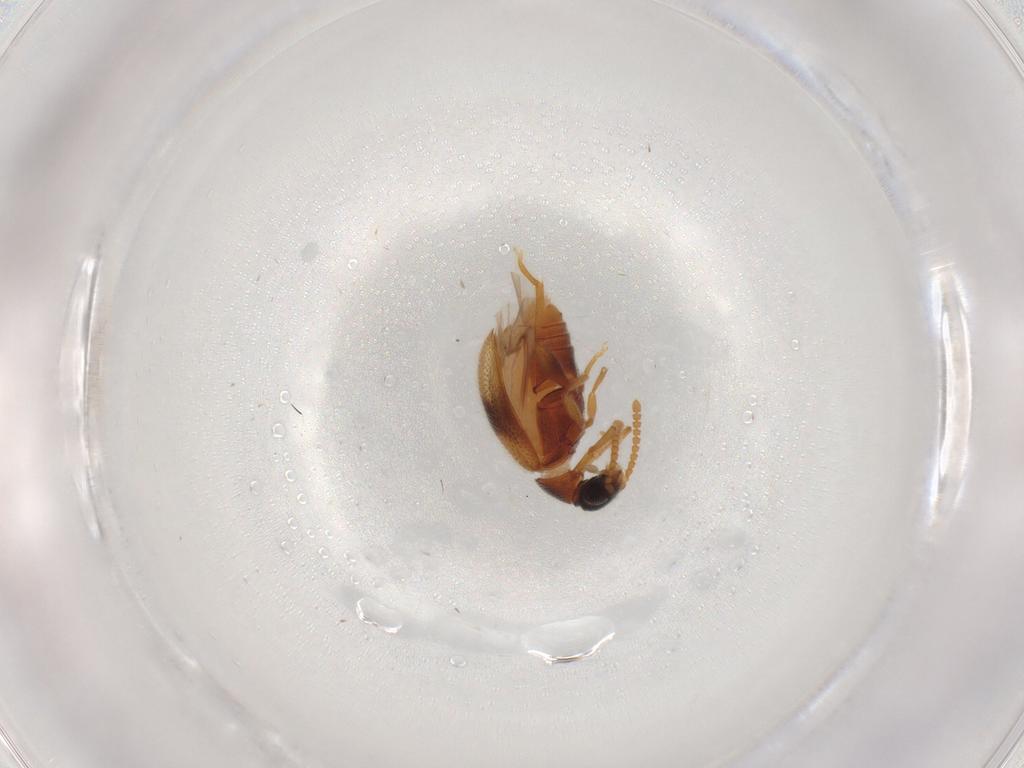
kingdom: Animalia
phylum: Arthropoda
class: Insecta
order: Coleoptera
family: Aderidae
